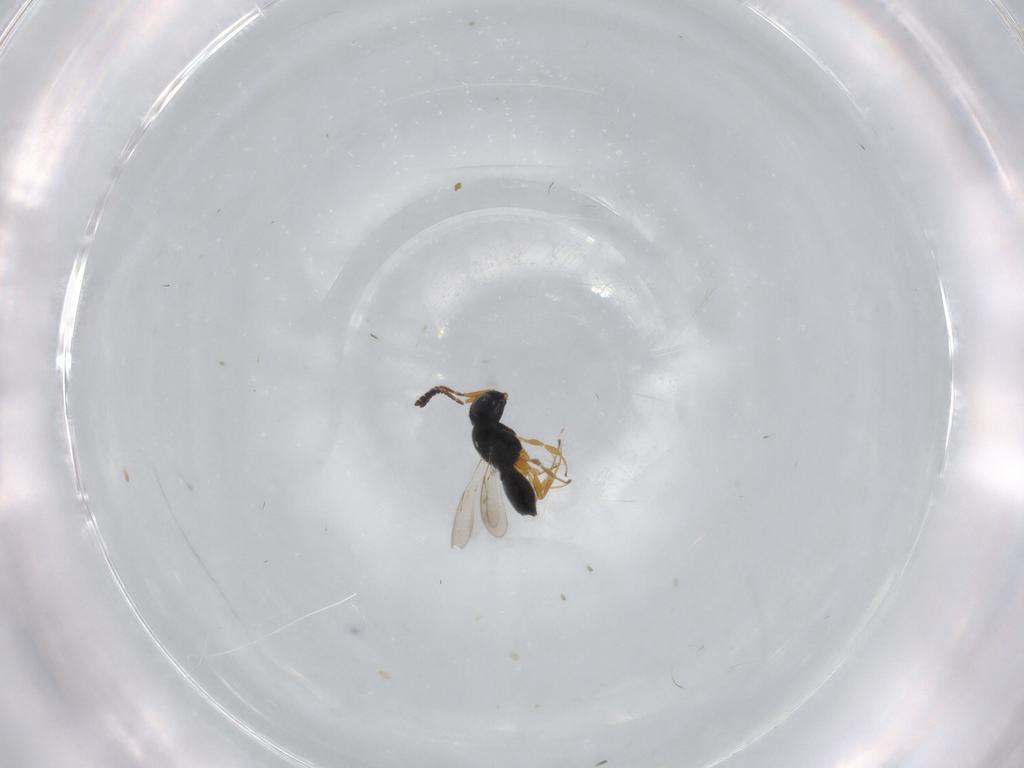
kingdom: Animalia
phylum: Arthropoda
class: Insecta
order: Hymenoptera
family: Scelionidae
